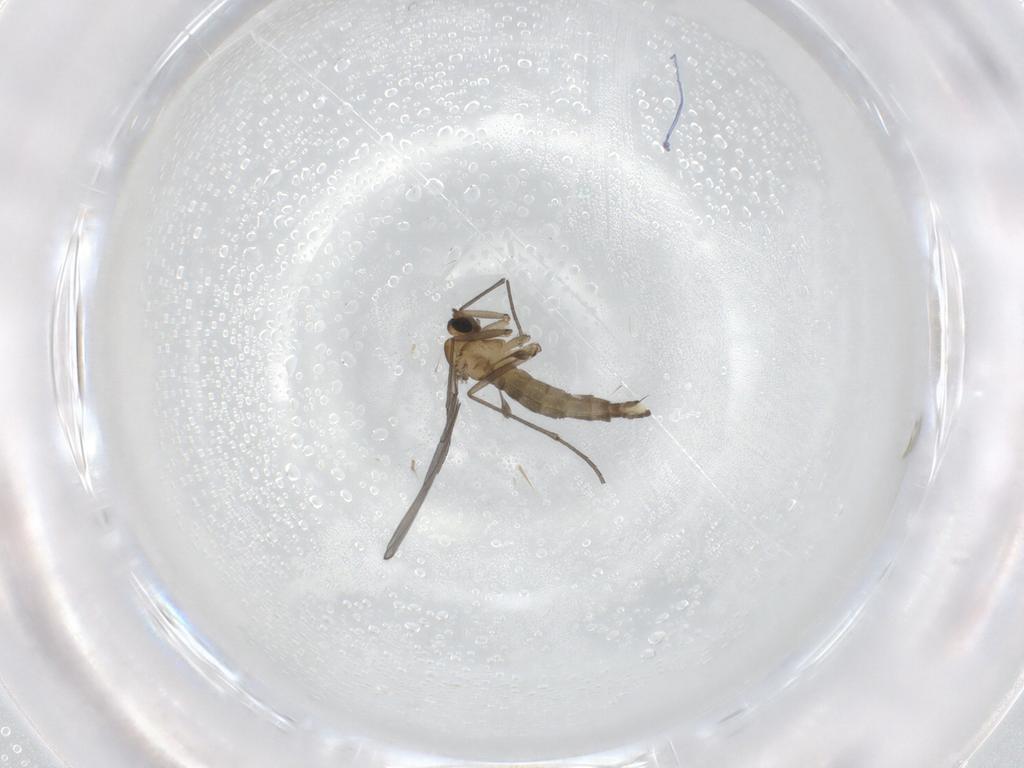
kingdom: Animalia
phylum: Arthropoda
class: Insecta
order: Diptera
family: Sciaridae
